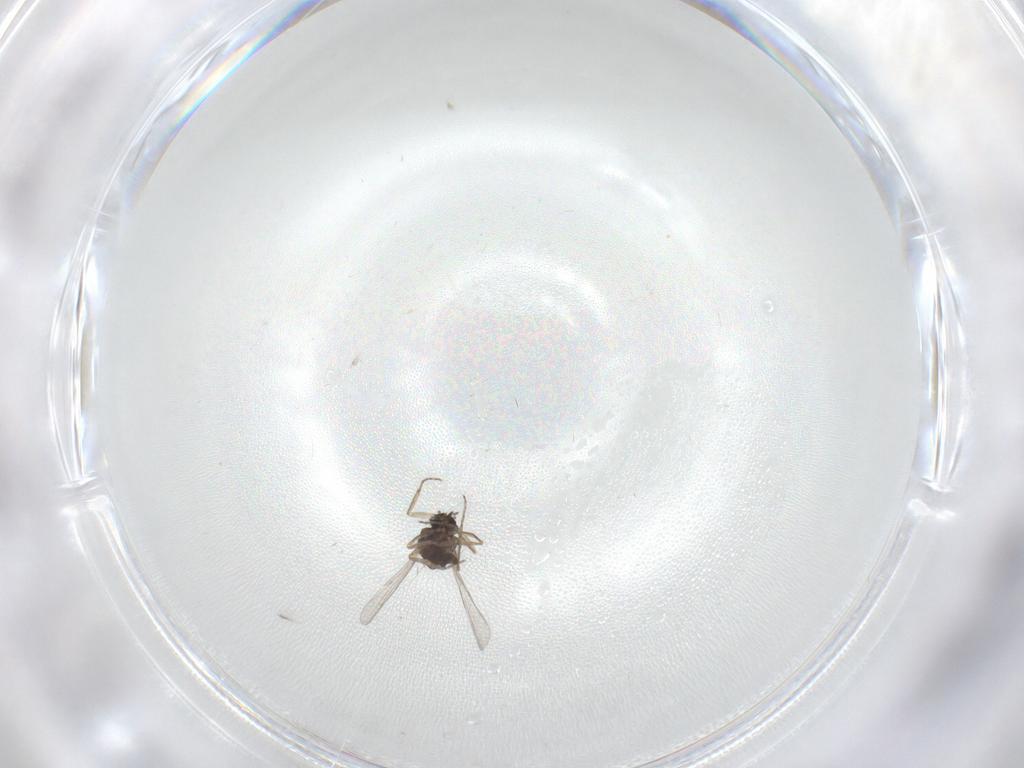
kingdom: Animalia
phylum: Arthropoda
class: Insecta
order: Diptera
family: Ceratopogonidae
